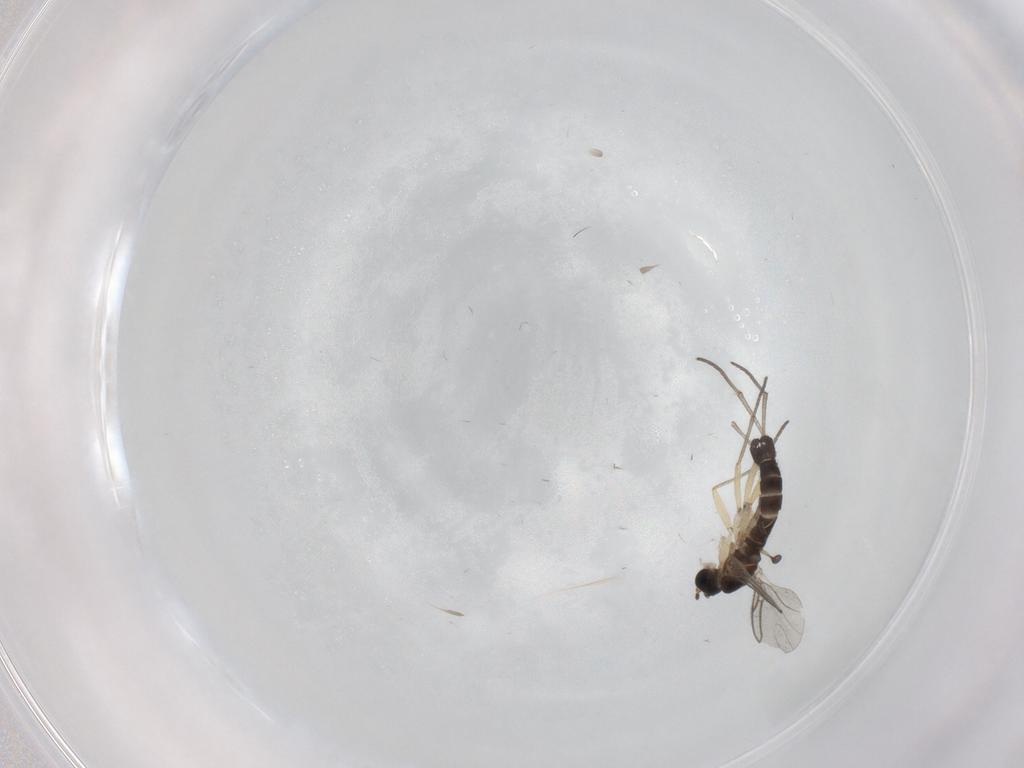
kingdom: Animalia
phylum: Arthropoda
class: Insecta
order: Diptera
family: Sciaridae
